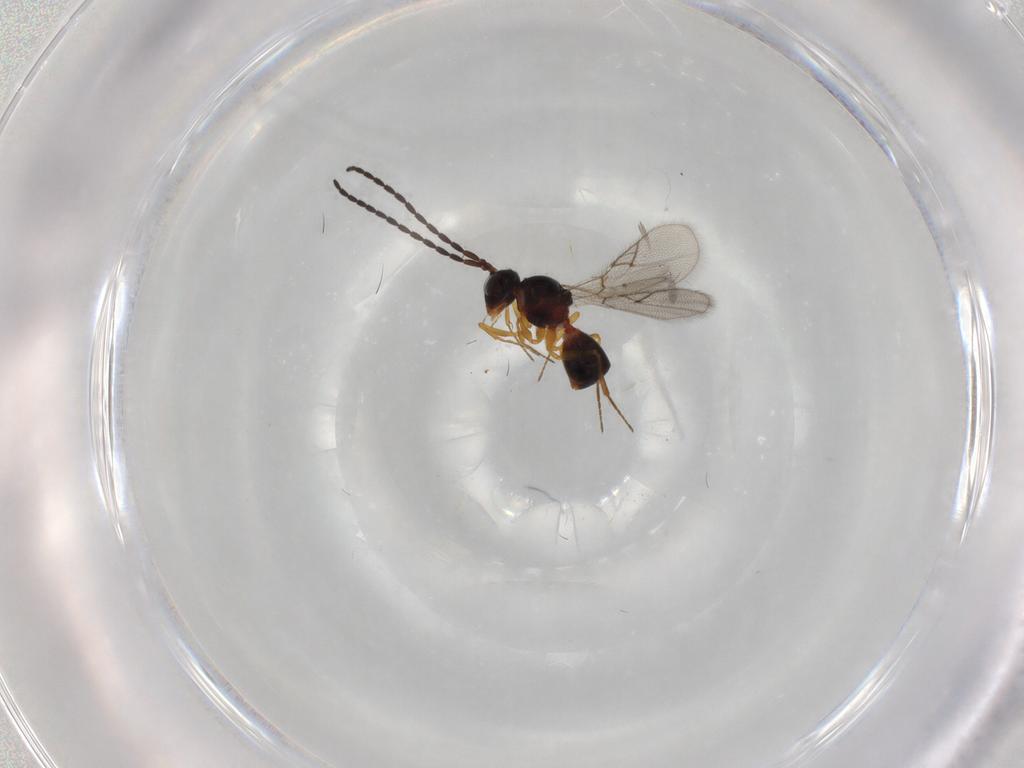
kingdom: Animalia
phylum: Arthropoda
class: Insecta
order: Hymenoptera
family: Figitidae
